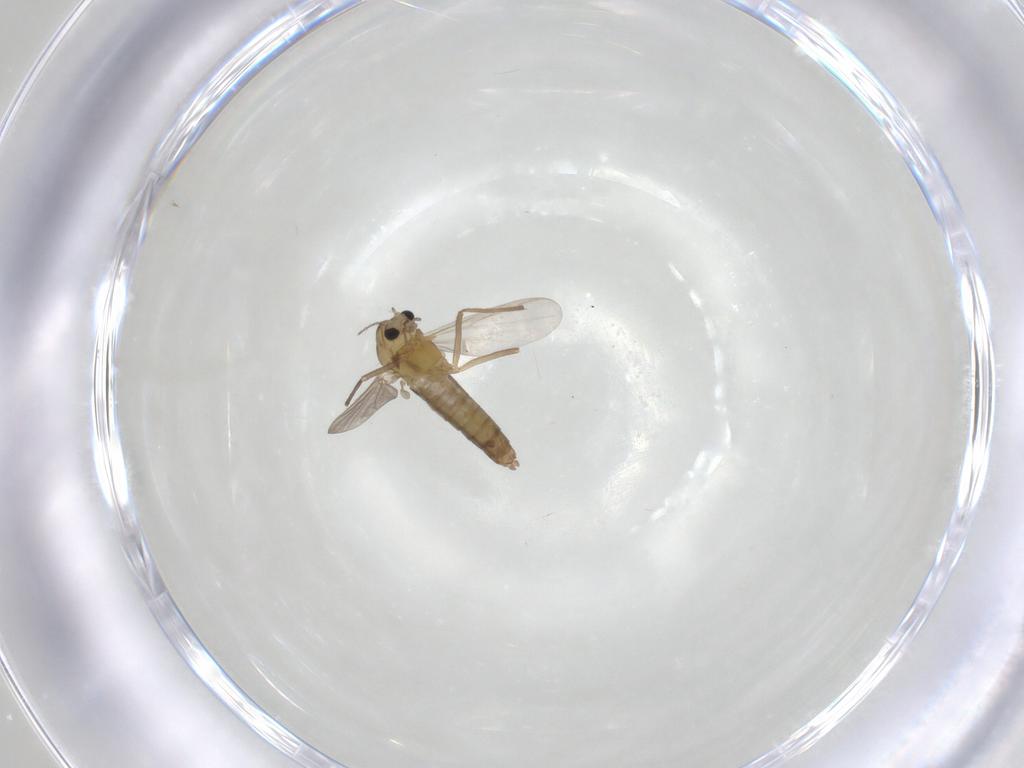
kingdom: Animalia
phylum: Arthropoda
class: Insecta
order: Diptera
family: Chironomidae
